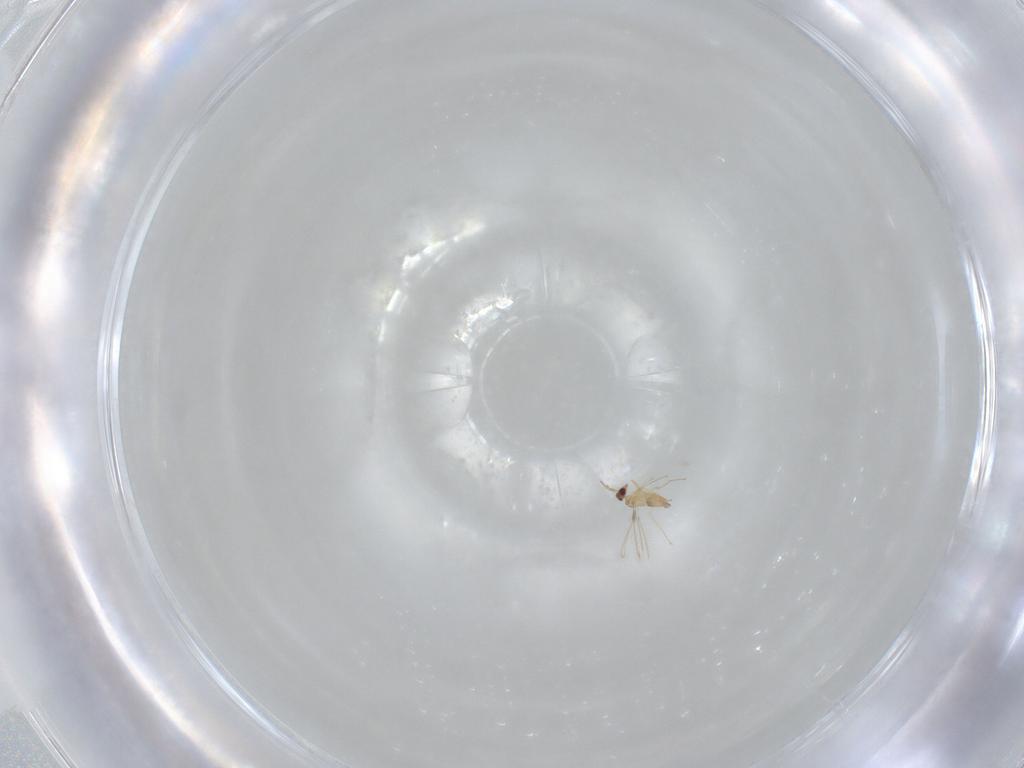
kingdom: Animalia
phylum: Arthropoda
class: Insecta
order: Hymenoptera
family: Mymaridae
